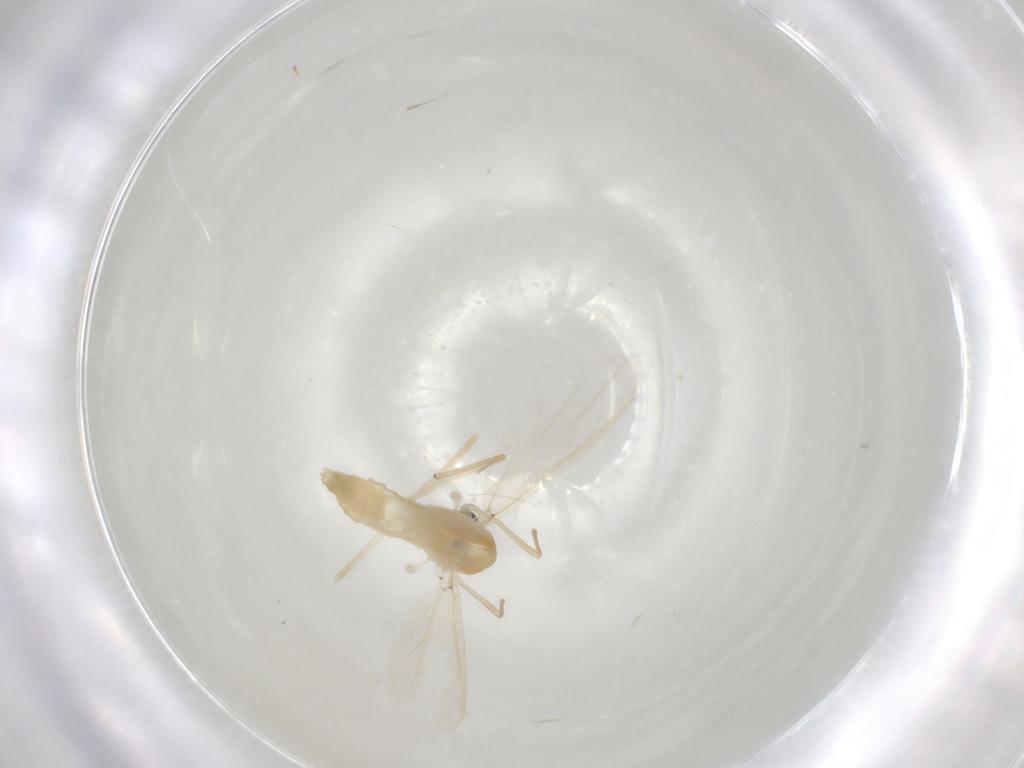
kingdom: Animalia
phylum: Arthropoda
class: Insecta
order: Diptera
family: Chironomidae
